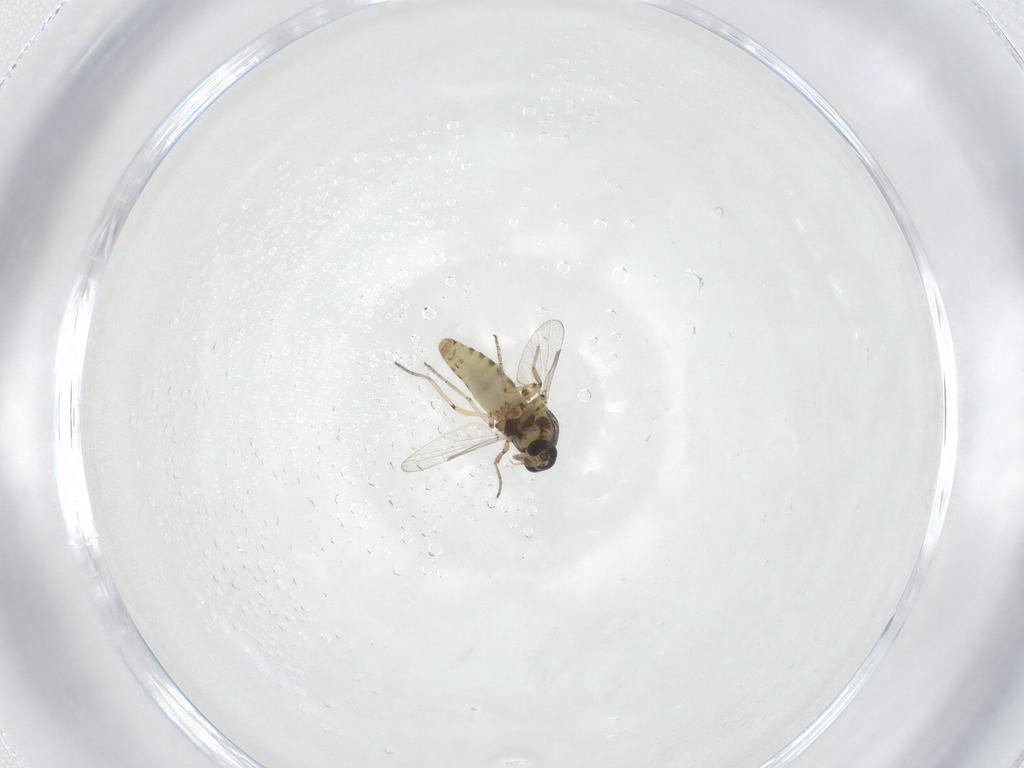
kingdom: Animalia
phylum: Arthropoda
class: Insecta
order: Diptera
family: Ceratopogonidae
